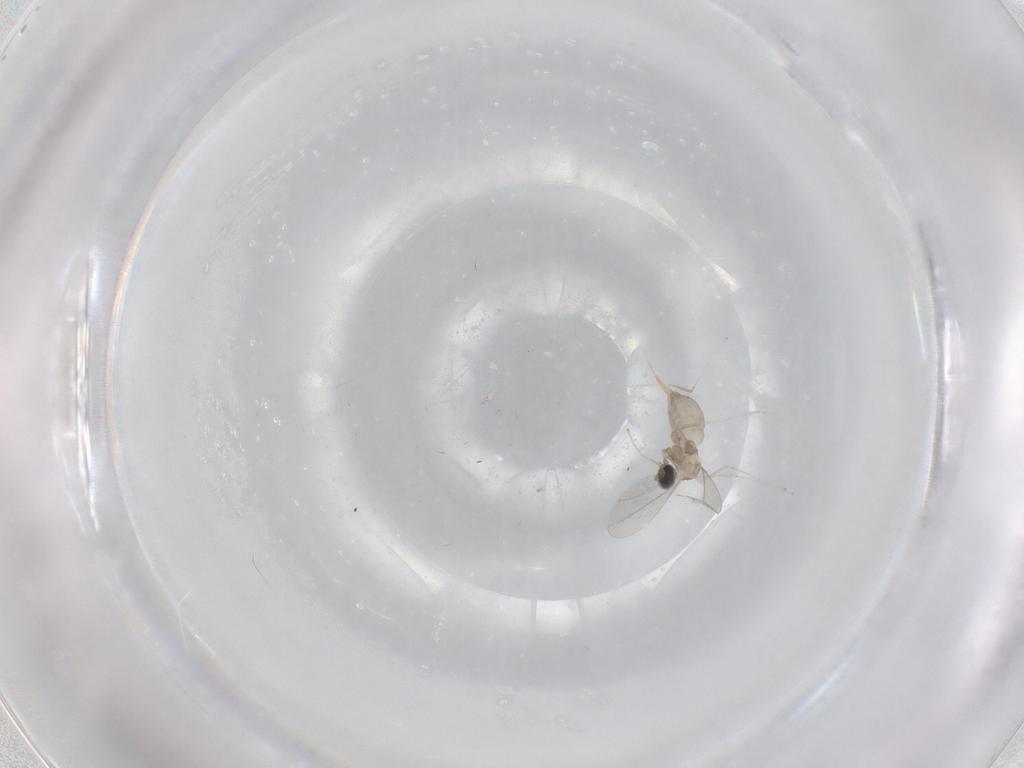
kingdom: Animalia
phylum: Arthropoda
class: Insecta
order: Diptera
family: Cecidomyiidae
